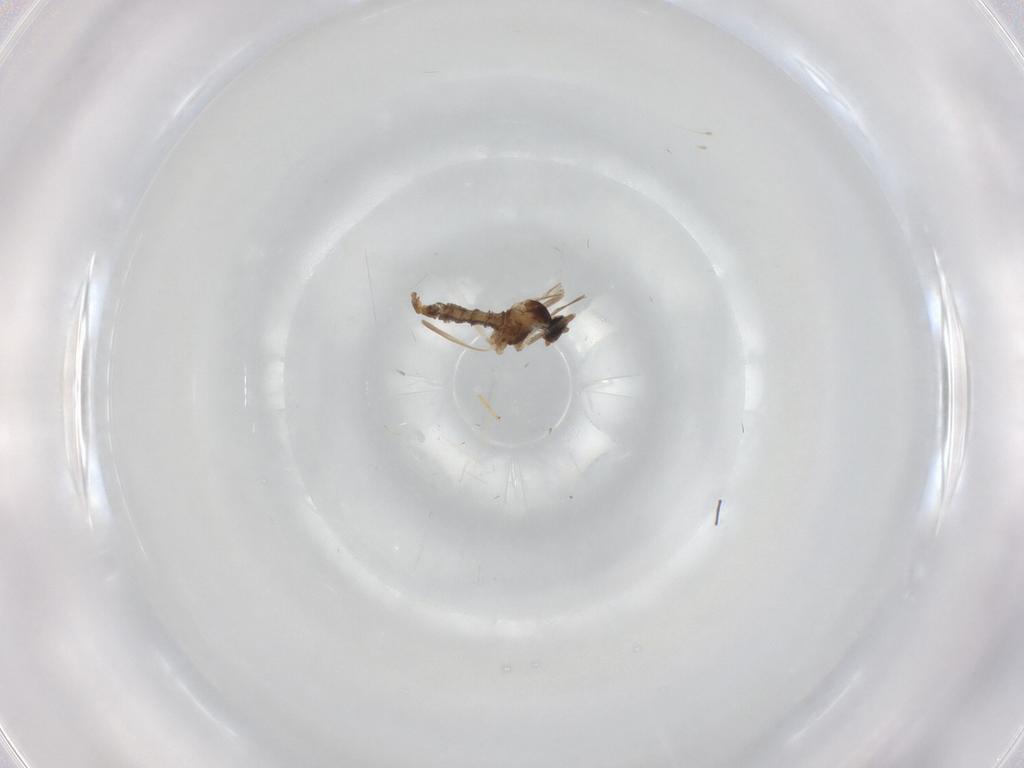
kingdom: Animalia
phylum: Arthropoda
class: Insecta
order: Diptera
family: Cecidomyiidae
